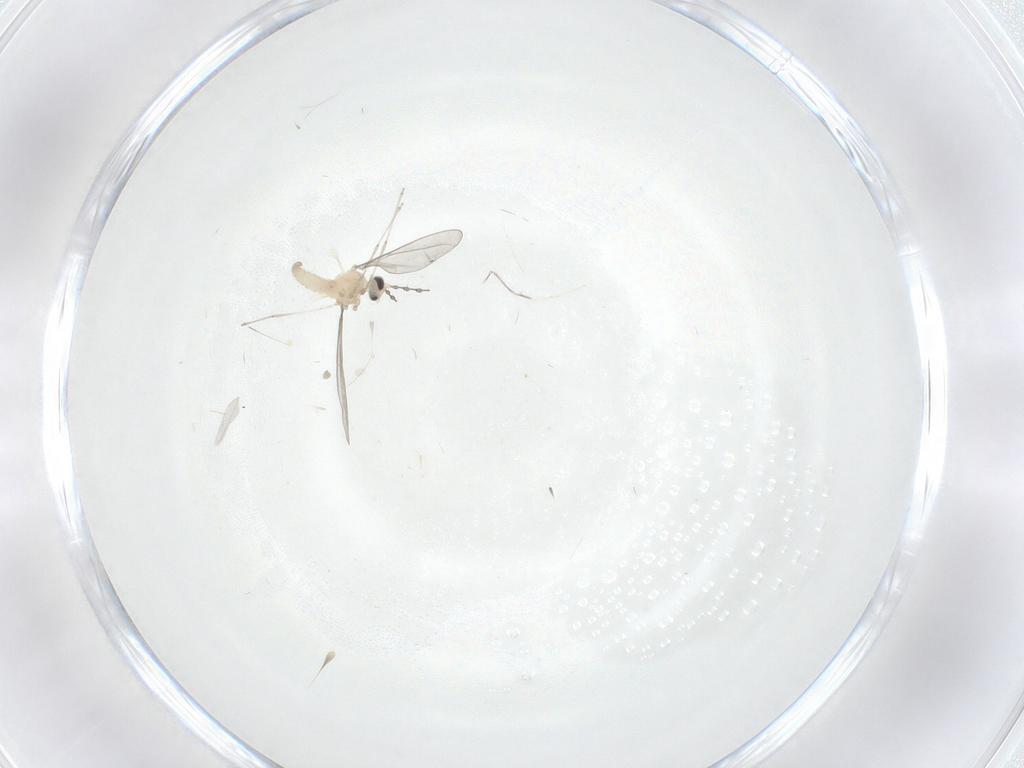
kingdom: Animalia
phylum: Arthropoda
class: Insecta
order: Diptera
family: Cecidomyiidae
